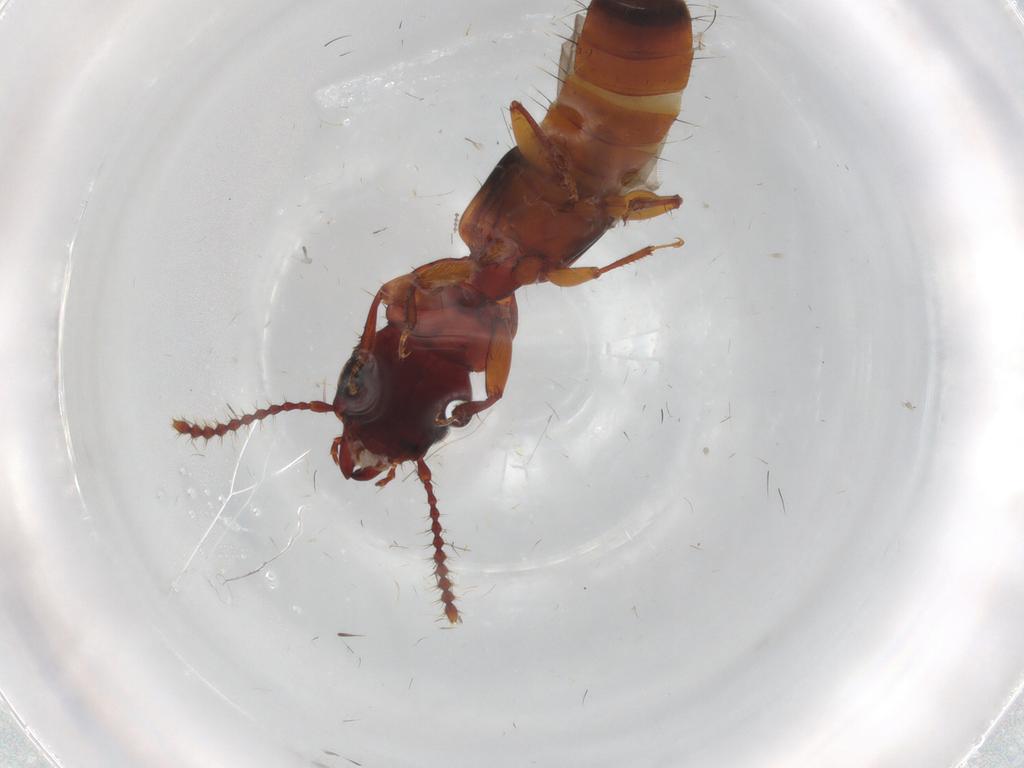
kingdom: Animalia
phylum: Arthropoda
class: Insecta
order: Coleoptera
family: Staphylinidae
